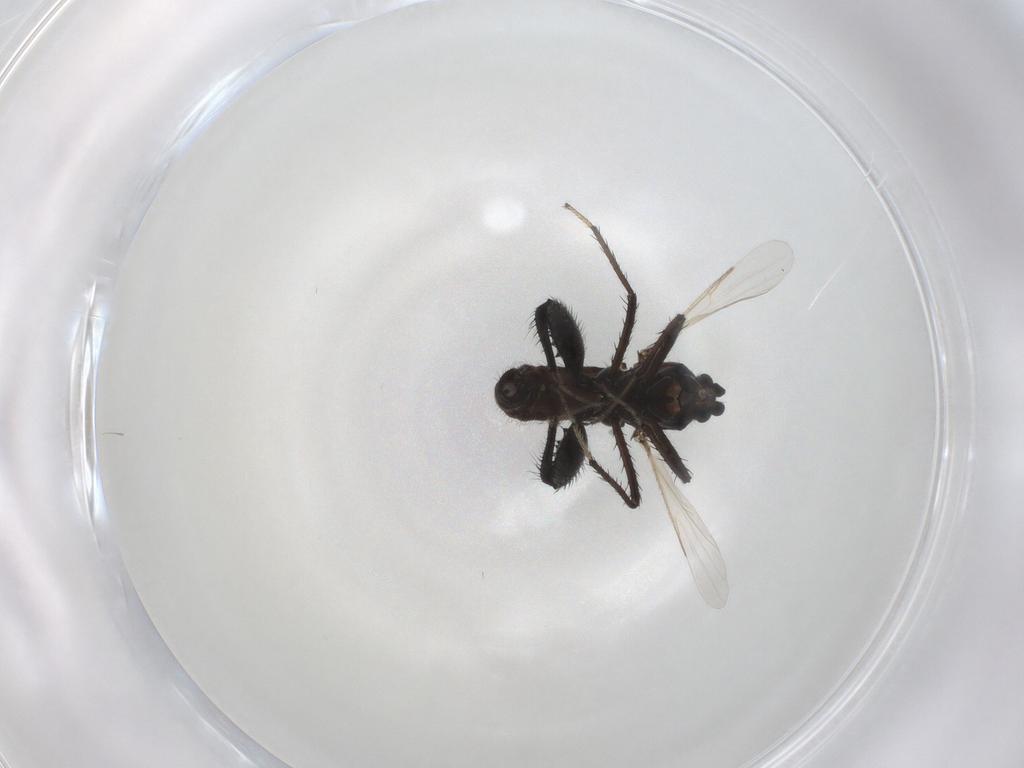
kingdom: Animalia
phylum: Arthropoda
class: Insecta
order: Diptera
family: Ceratopogonidae
